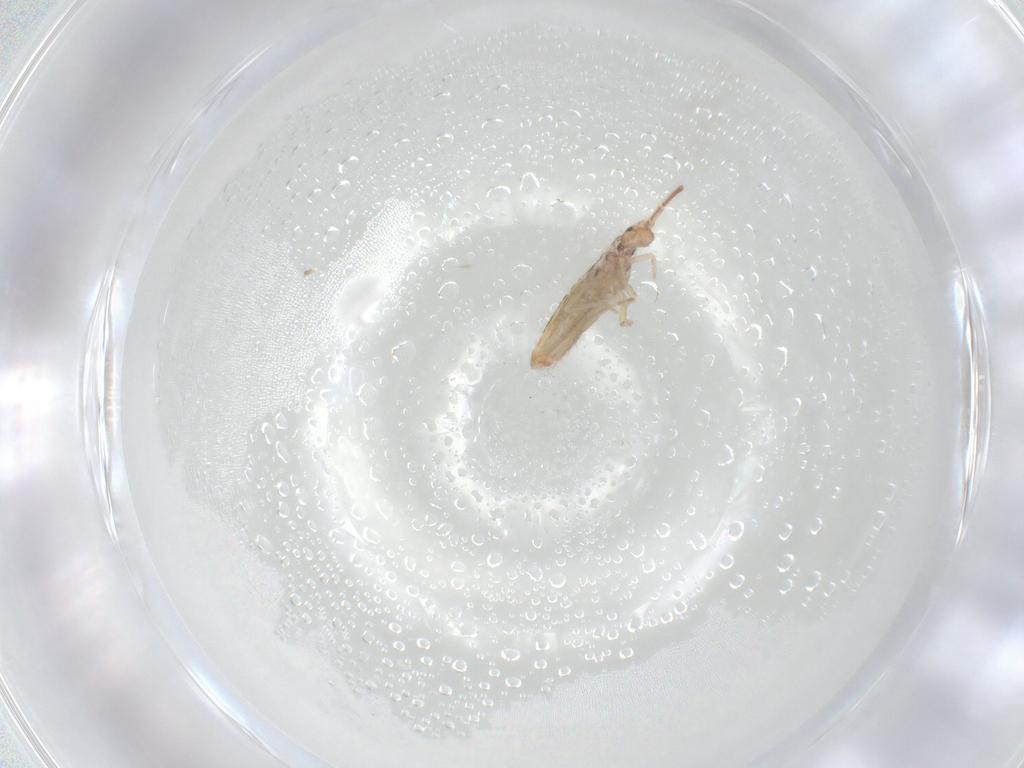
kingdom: Animalia
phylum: Arthropoda
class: Collembola
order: Entomobryomorpha
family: Entomobryidae
